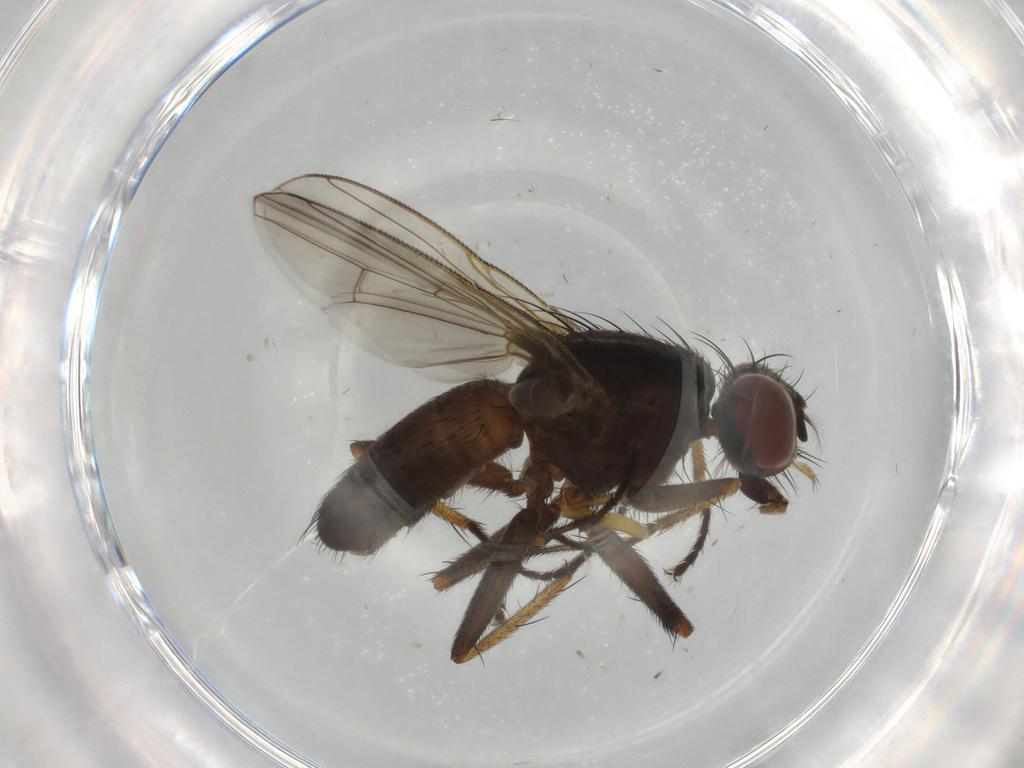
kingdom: Animalia
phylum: Arthropoda
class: Insecta
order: Diptera
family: Muscidae
